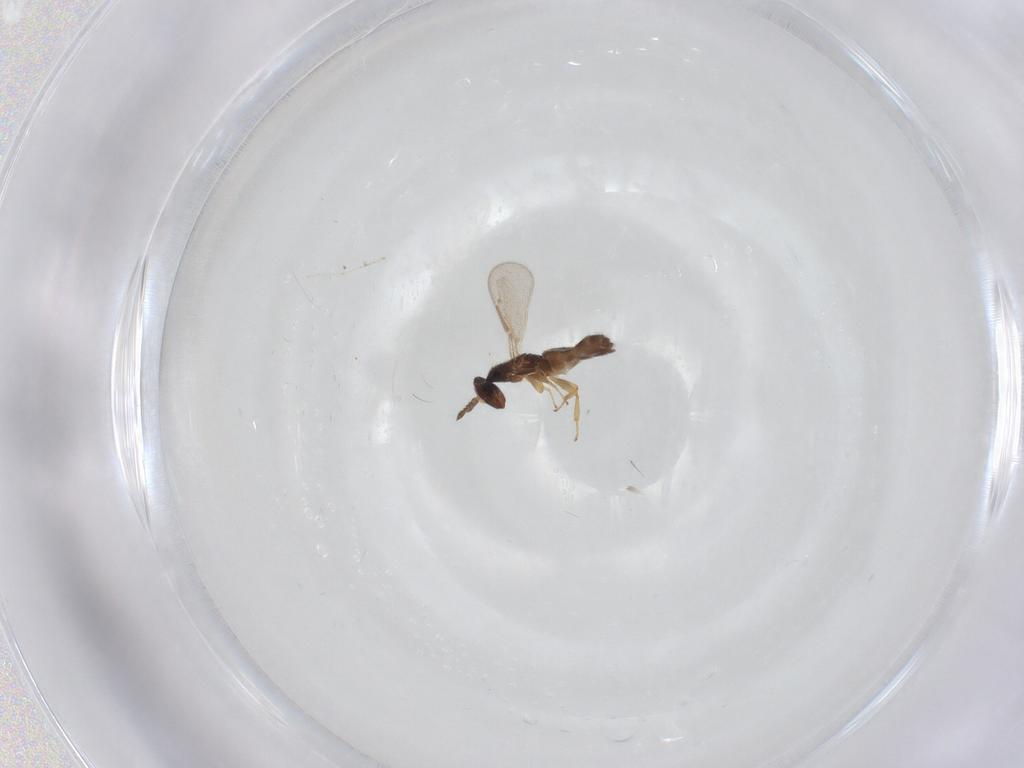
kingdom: Animalia
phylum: Arthropoda
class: Insecta
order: Hymenoptera
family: Eulophidae
